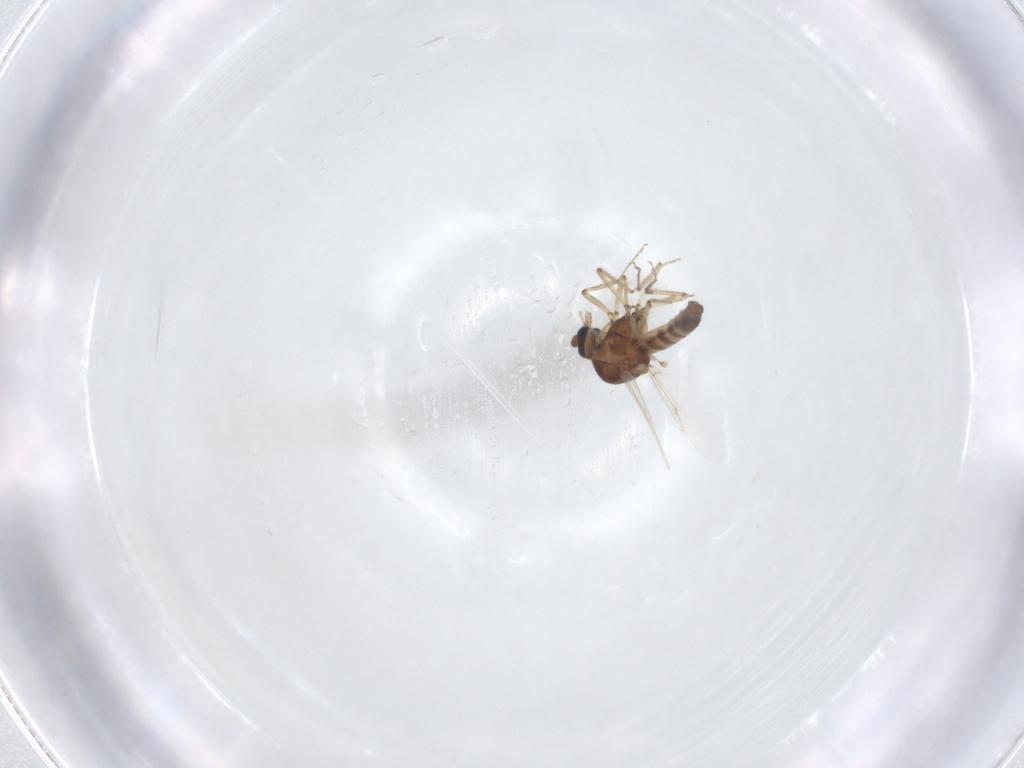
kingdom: Animalia
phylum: Arthropoda
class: Insecta
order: Diptera
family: Ceratopogonidae
